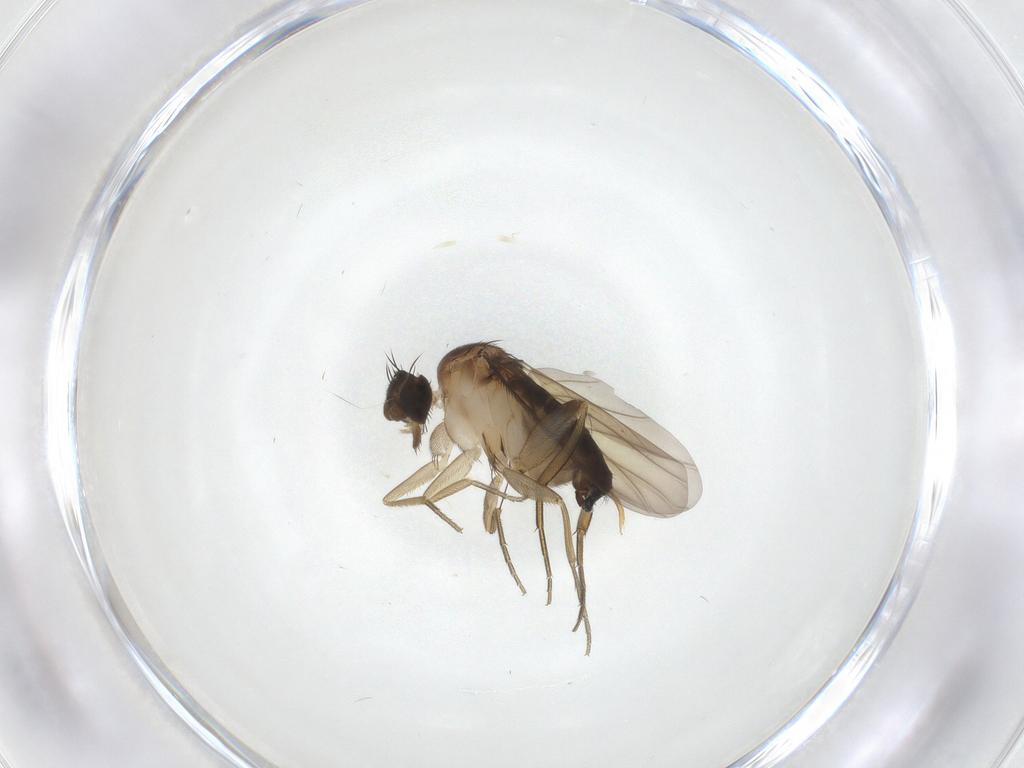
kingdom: Animalia
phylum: Arthropoda
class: Insecta
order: Diptera
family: Phoridae
